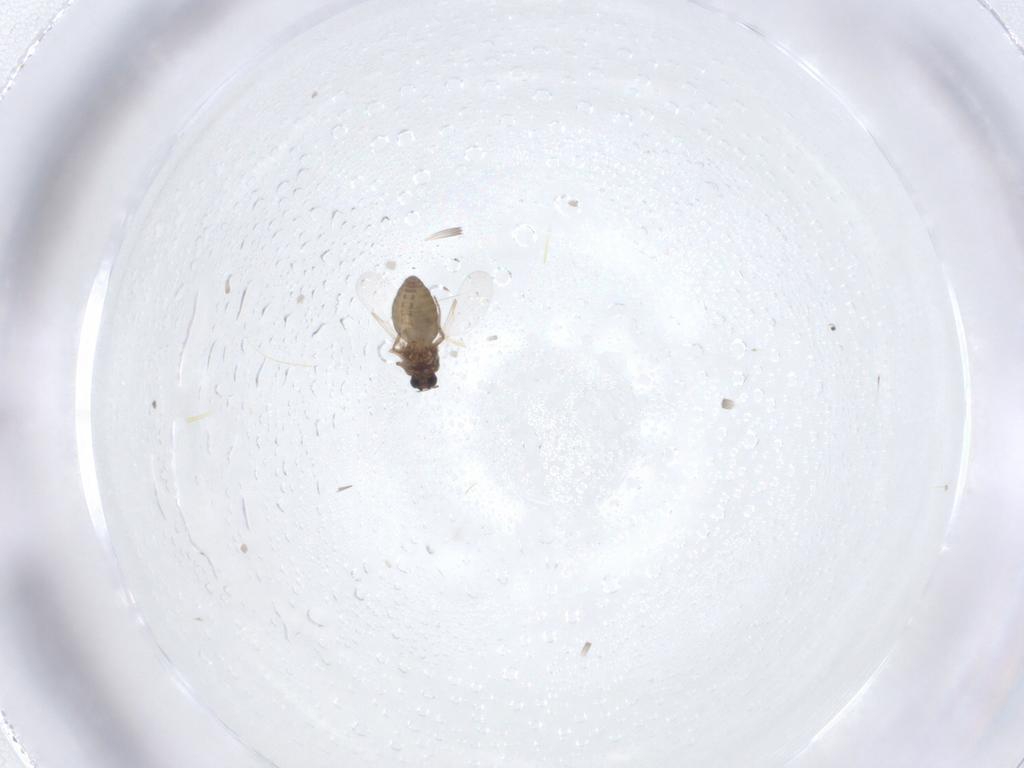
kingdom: Animalia
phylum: Arthropoda
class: Insecta
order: Diptera
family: Ceratopogonidae
